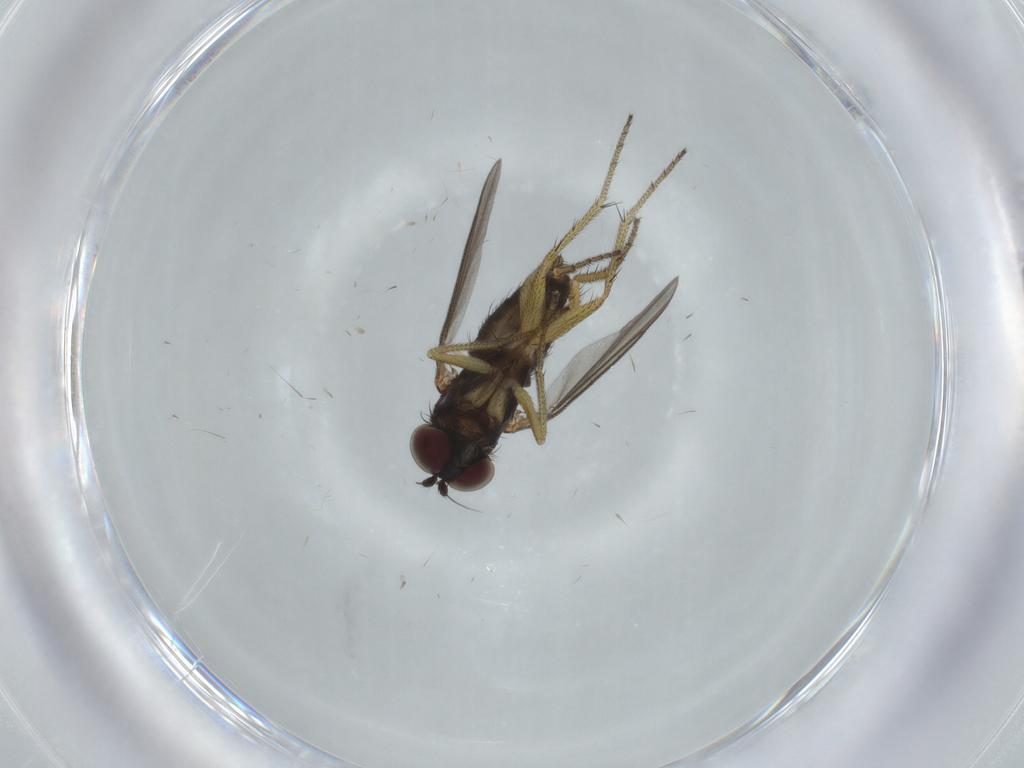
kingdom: Animalia
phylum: Arthropoda
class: Insecta
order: Diptera
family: Dolichopodidae
